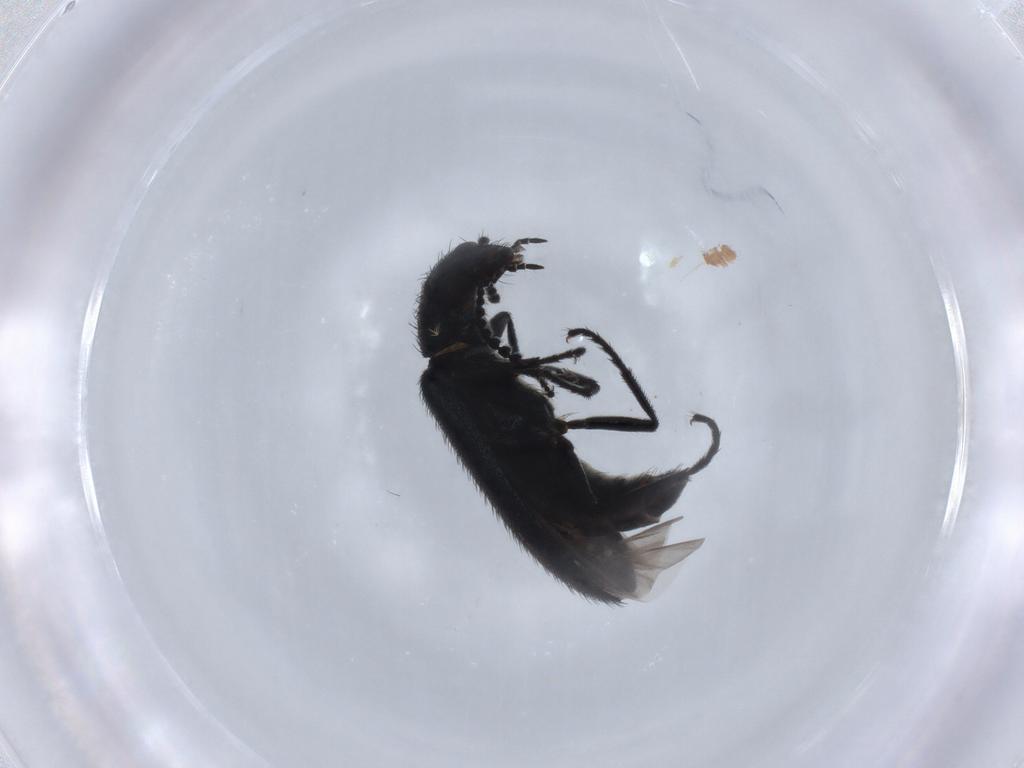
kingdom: Animalia
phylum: Arthropoda
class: Insecta
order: Coleoptera
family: Melyridae
